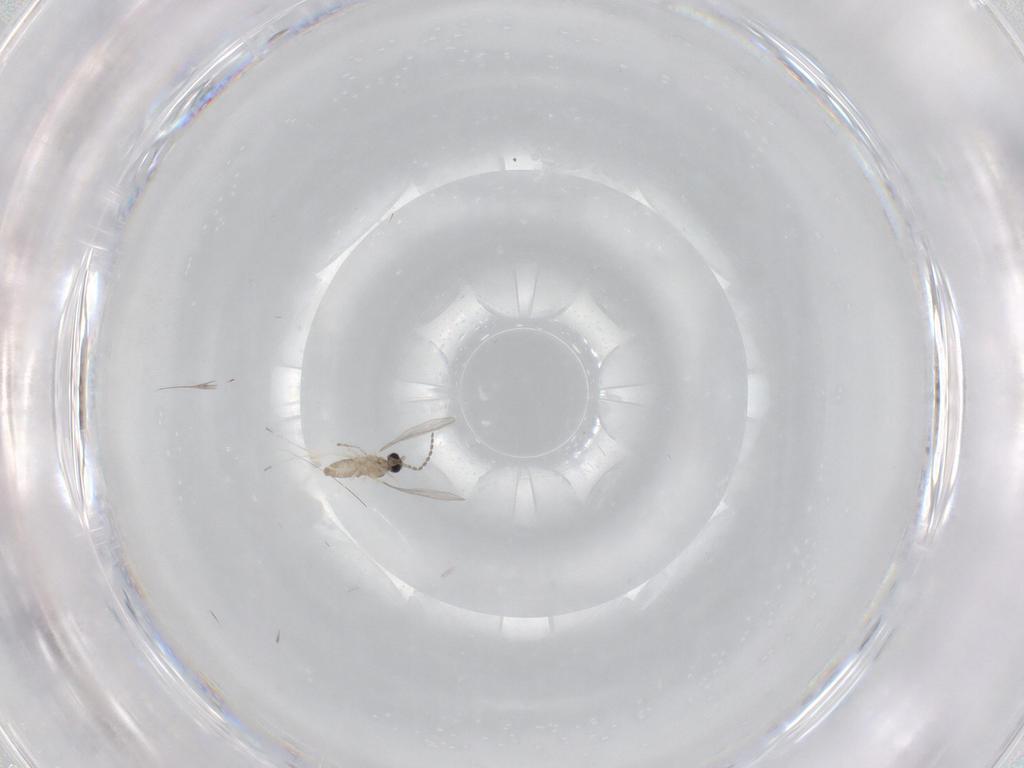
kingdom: Animalia
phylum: Arthropoda
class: Insecta
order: Diptera
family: Cecidomyiidae
